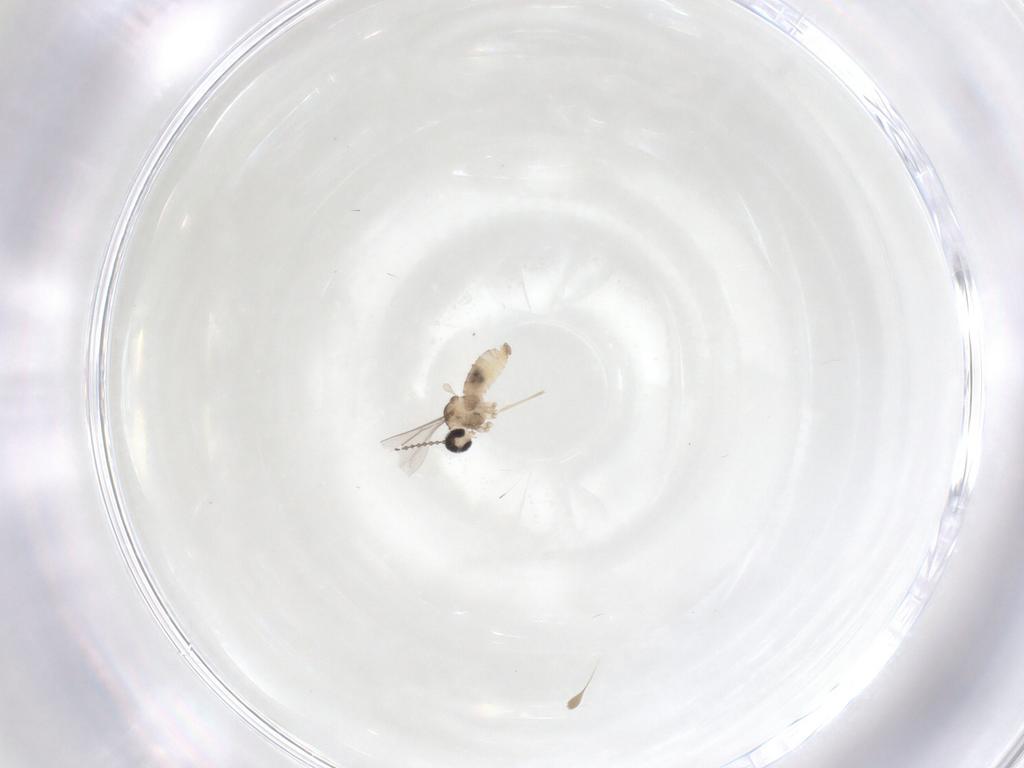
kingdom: Animalia
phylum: Arthropoda
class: Insecta
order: Diptera
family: Cecidomyiidae
